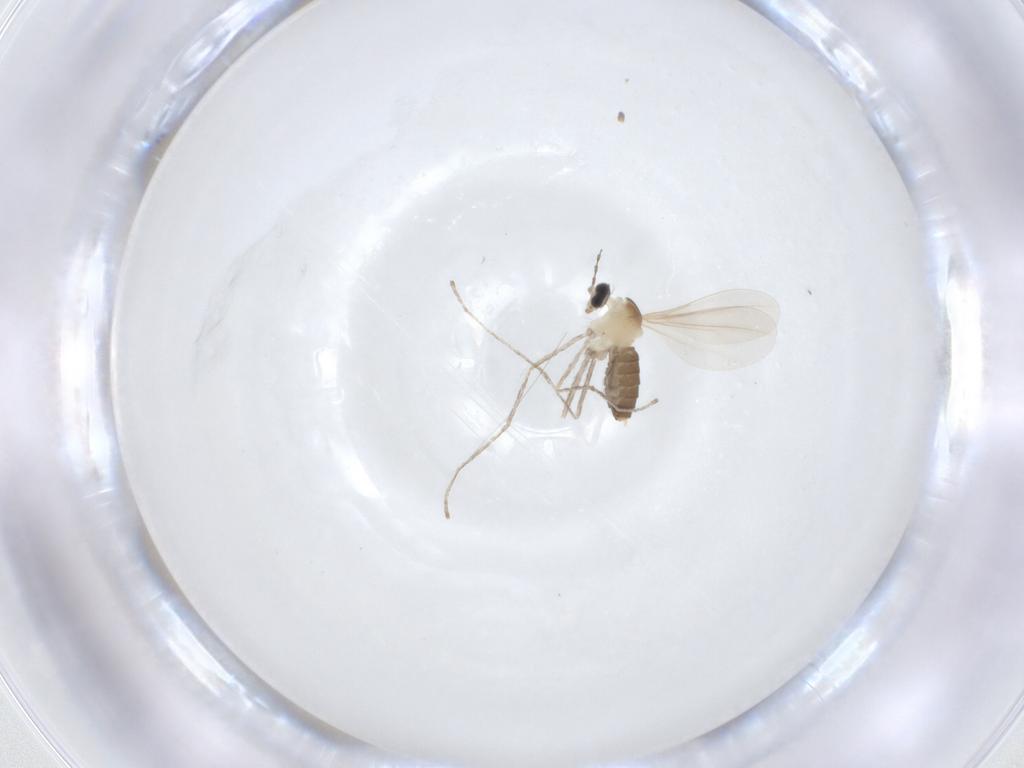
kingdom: Animalia
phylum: Arthropoda
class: Insecta
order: Diptera
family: Cecidomyiidae
